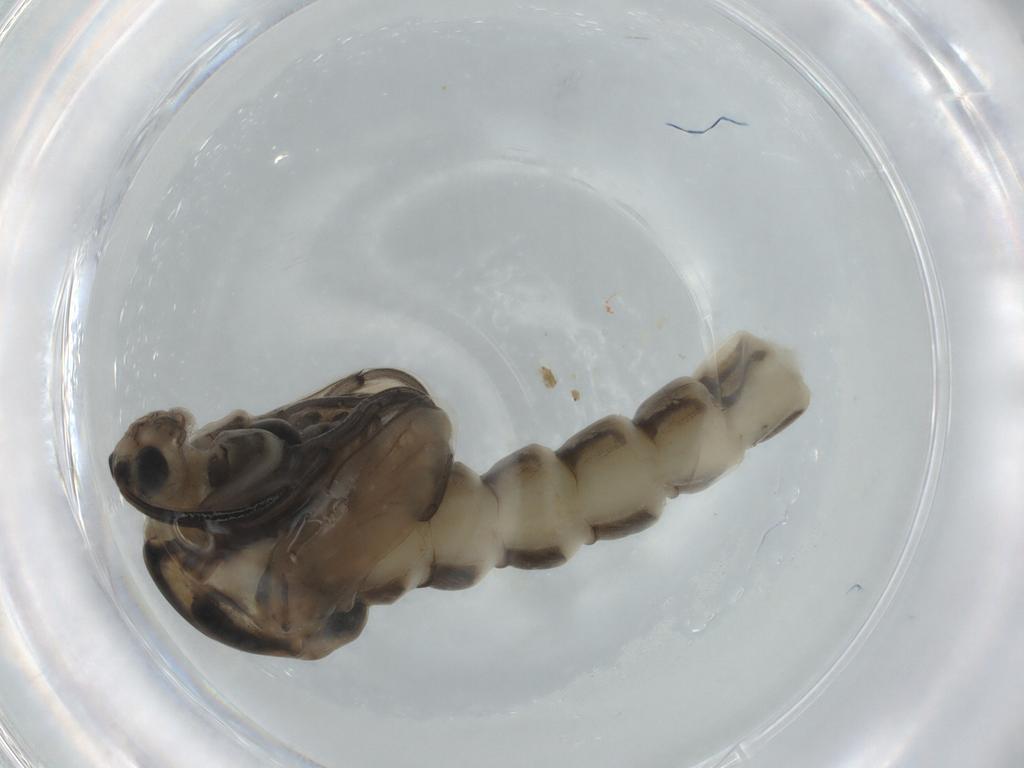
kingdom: Animalia
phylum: Arthropoda
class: Insecta
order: Diptera
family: Chironomidae
